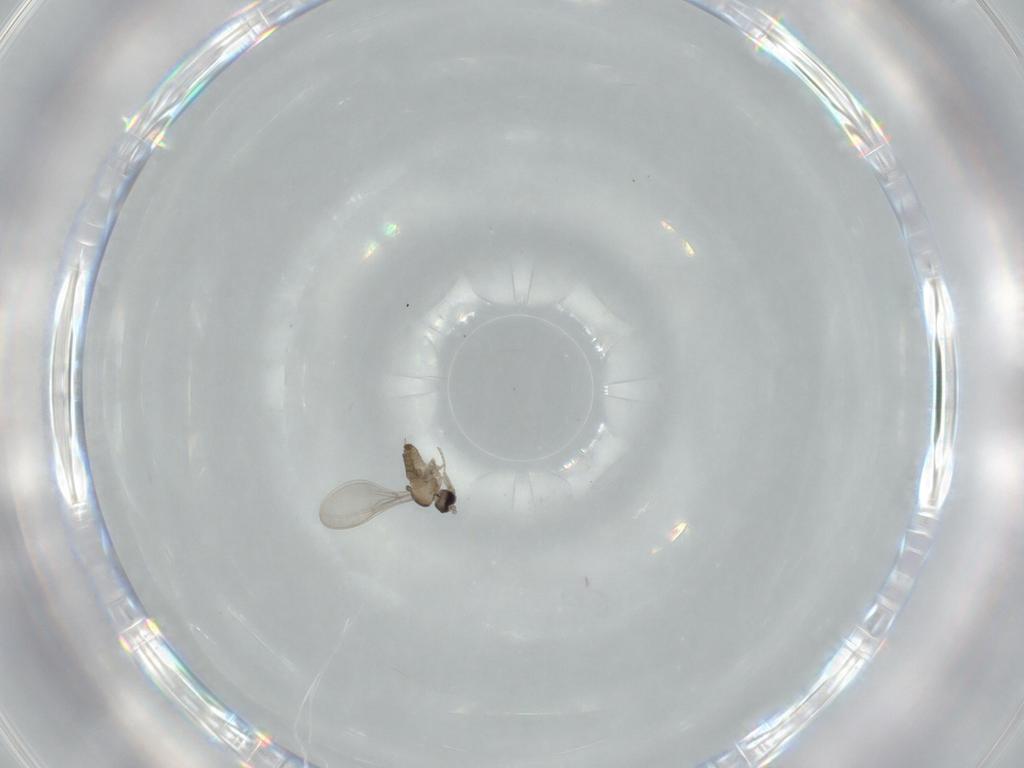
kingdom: Animalia
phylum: Arthropoda
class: Insecta
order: Diptera
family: Cecidomyiidae
